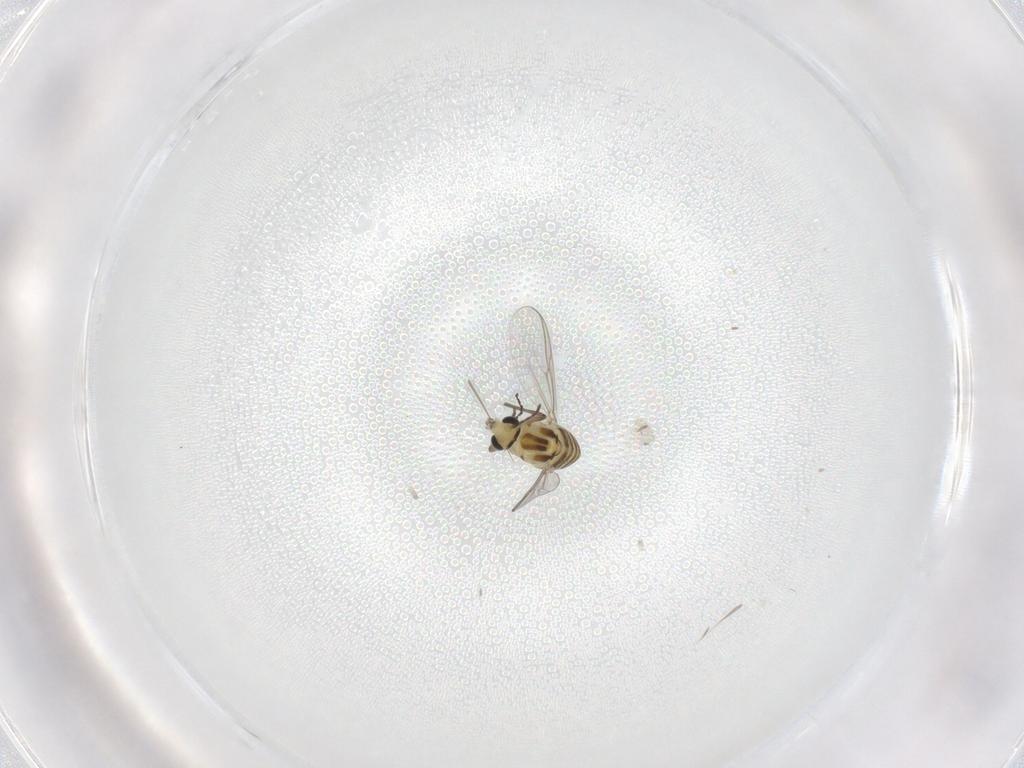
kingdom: Animalia
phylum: Arthropoda
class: Insecta
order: Diptera
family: Chironomidae
